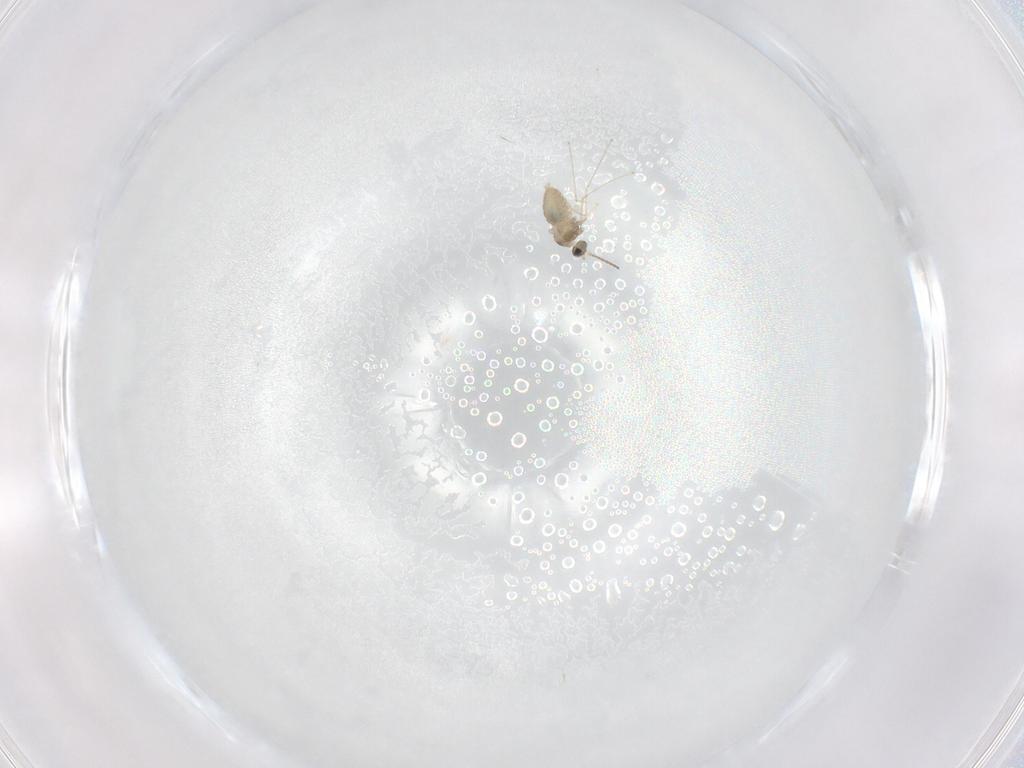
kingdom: Animalia
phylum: Arthropoda
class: Insecta
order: Diptera
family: Cecidomyiidae
